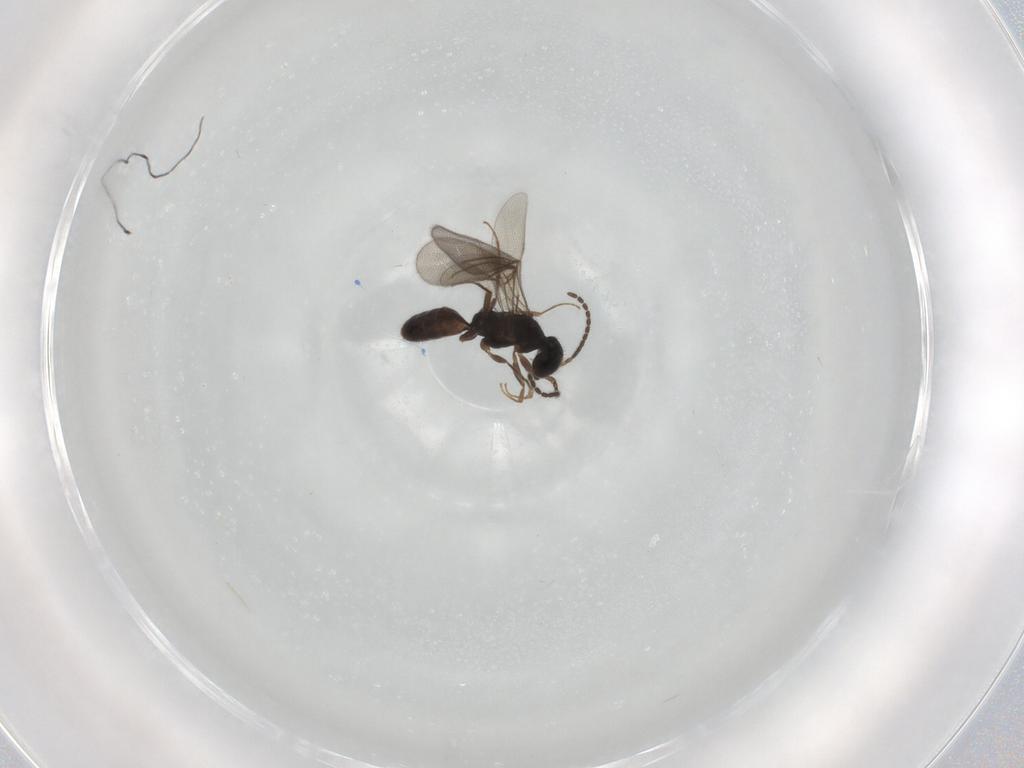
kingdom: Animalia
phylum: Arthropoda
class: Insecta
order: Hymenoptera
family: Bethylidae
